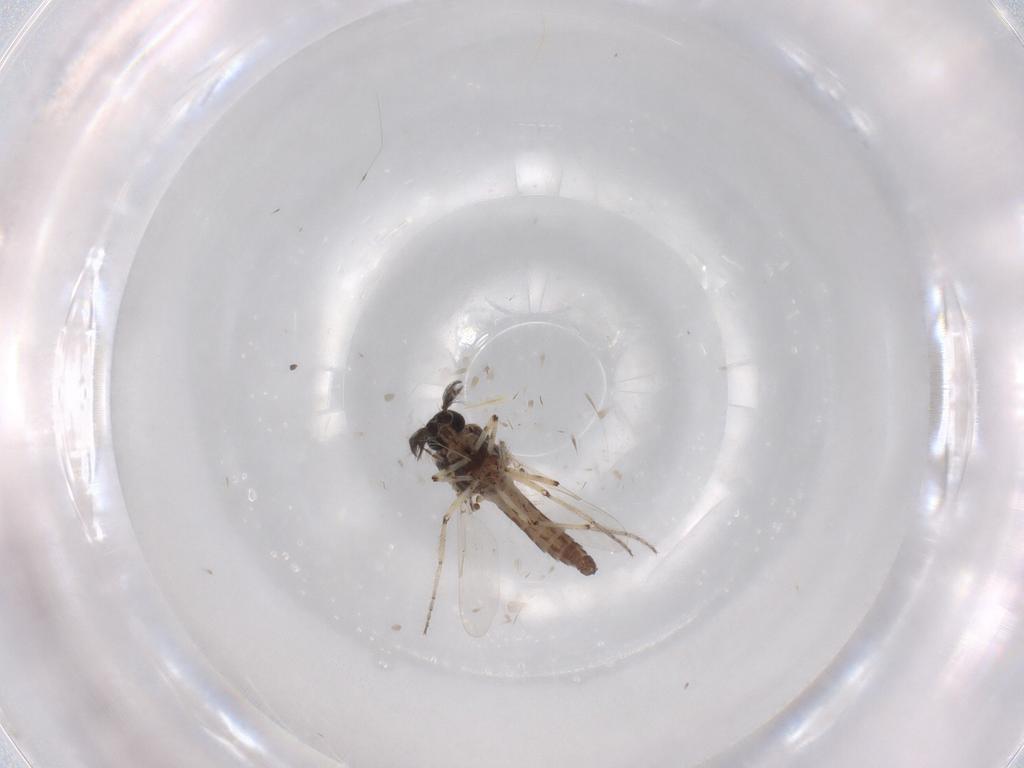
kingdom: Animalia
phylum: Arthropoda
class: Insecta
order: Diptera
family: Ceratopogonidae
